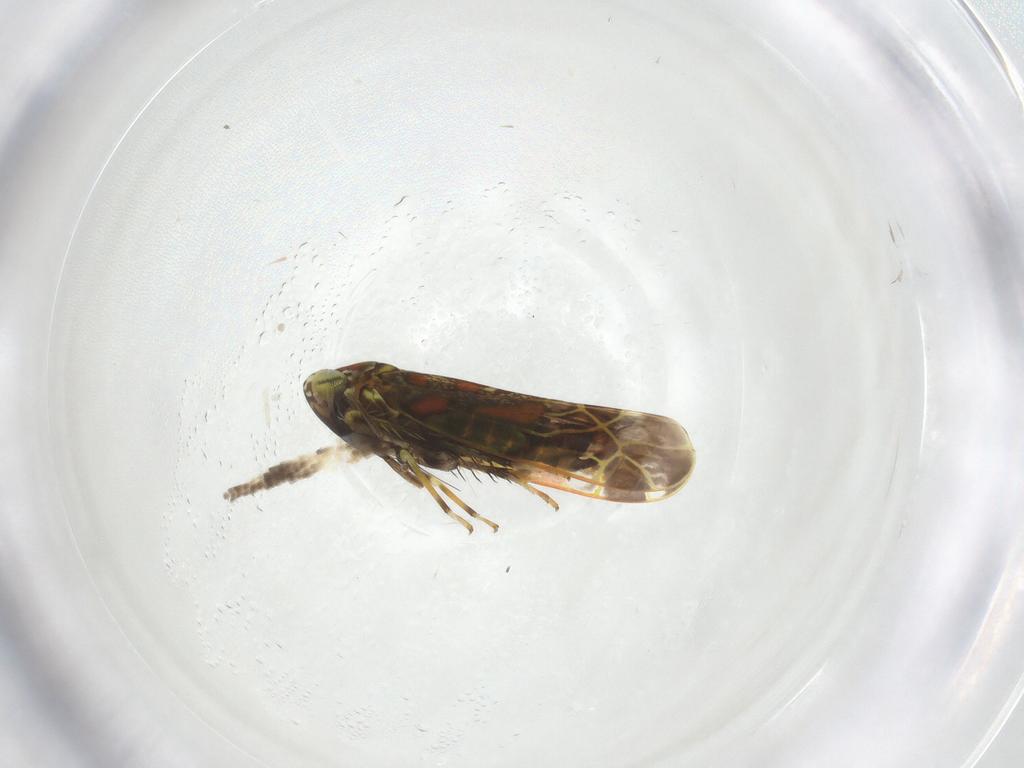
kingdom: Animalia
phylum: Arthropoda
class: Insecta
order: Hemiptera
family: Cicadellidae
